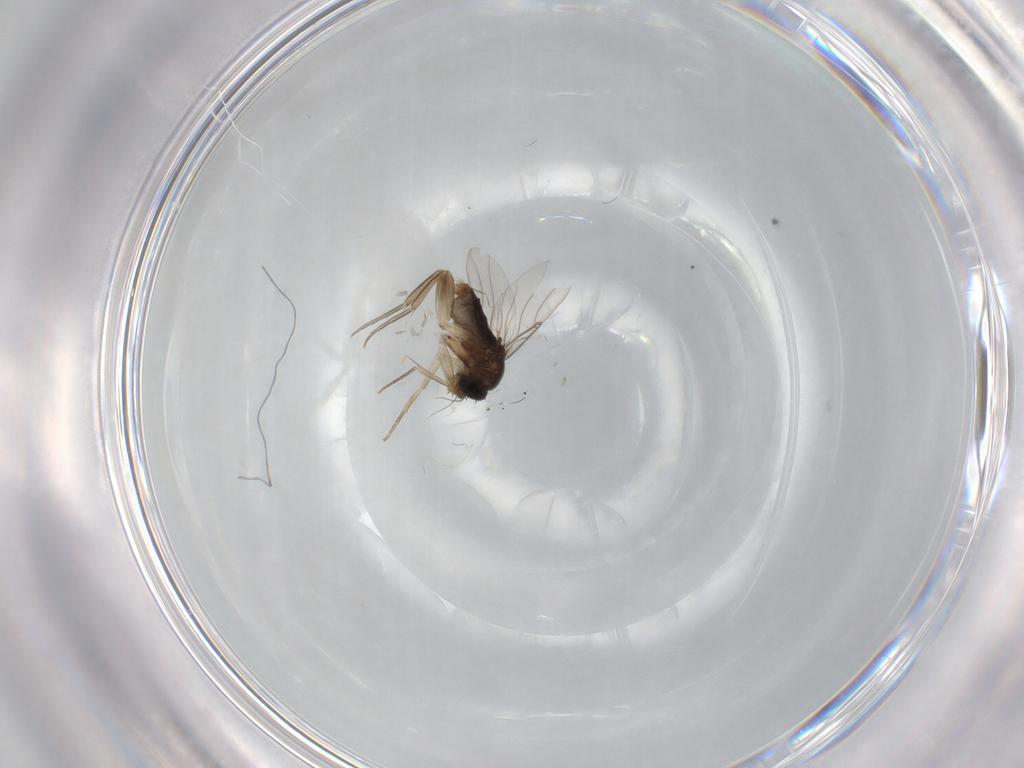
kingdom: Animalia
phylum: Arthropoda
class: Insecta
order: Diptera
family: Phoridae
